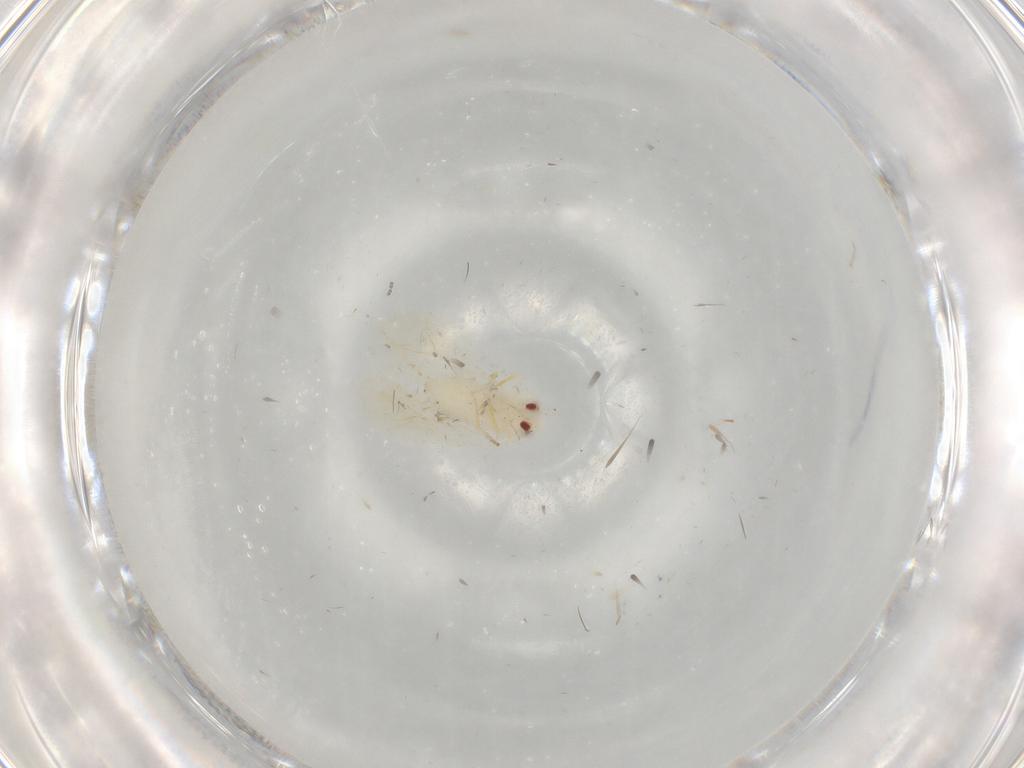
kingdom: Animalia
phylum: Arthropoda
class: Insecta
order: Hemiptera
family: Aleyrodidae
